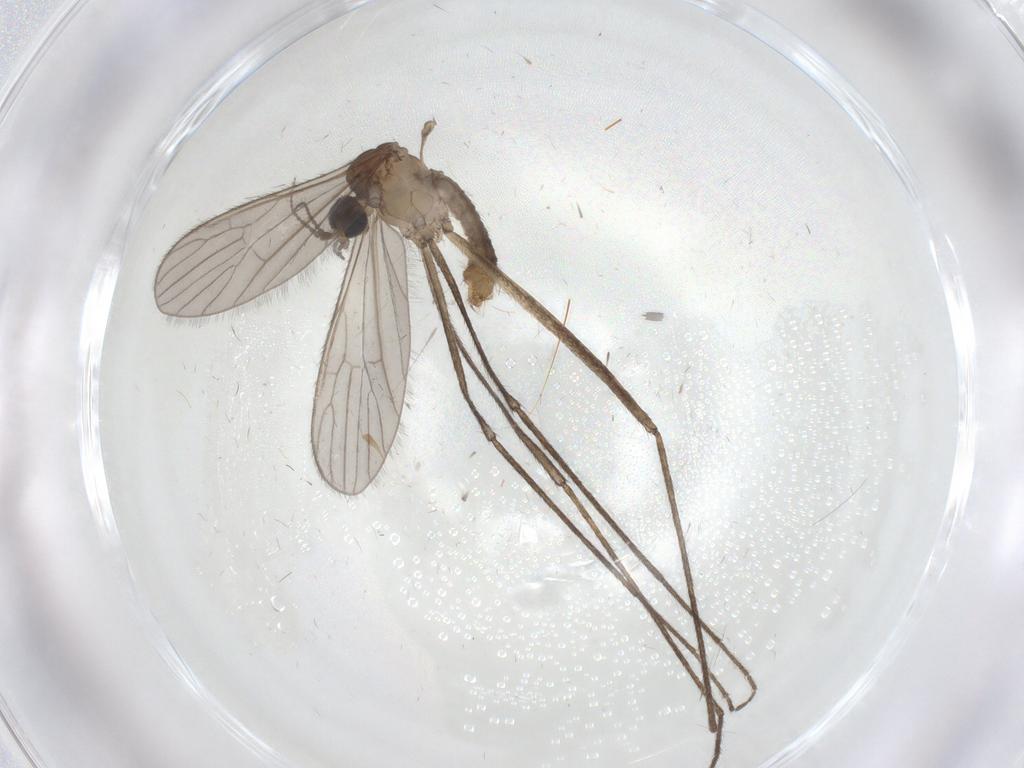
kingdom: Animalia
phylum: Arthropoda
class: Insecta
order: Diptera
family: Limoniidae
